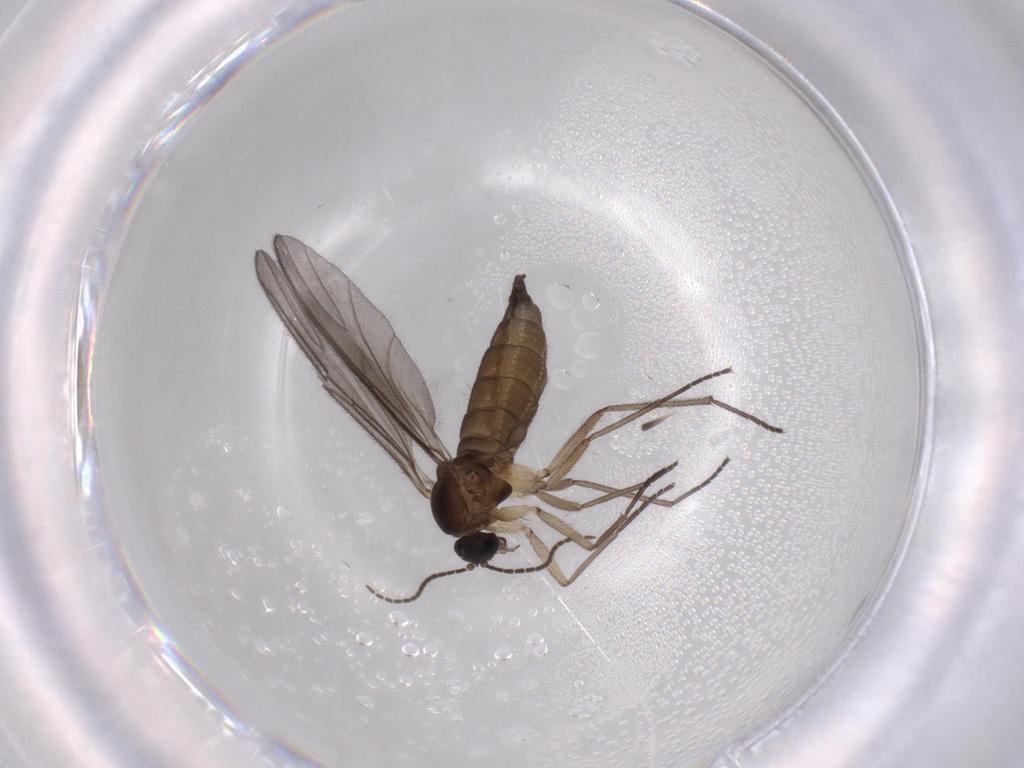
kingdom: Animalia
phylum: Arthropoda
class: Insecta
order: Diptera
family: Sciaridae
